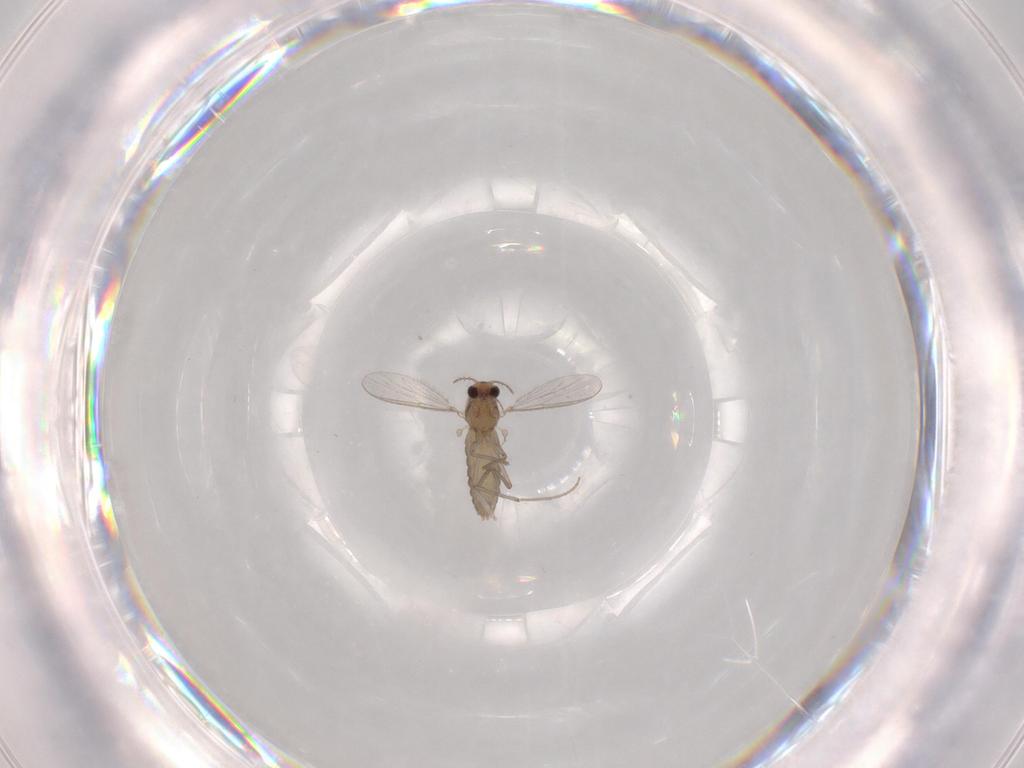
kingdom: Animalia
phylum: Arthropoda
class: Insecta
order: Diptera
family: Chironomidae
